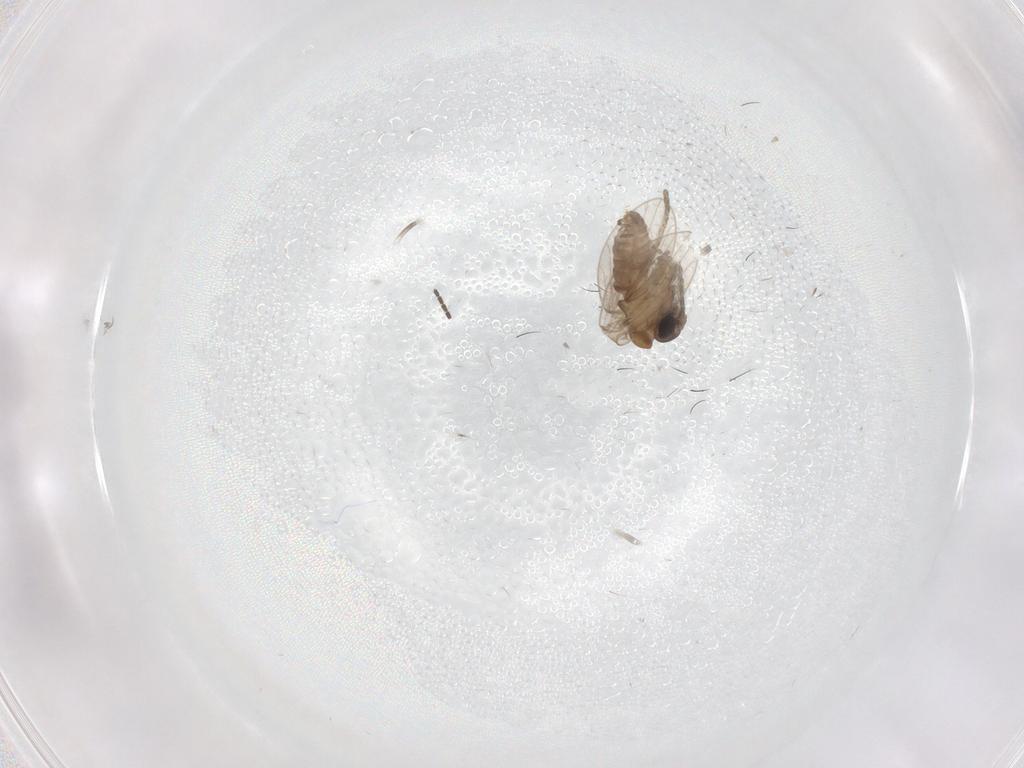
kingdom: Animalia
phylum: Arthropoda
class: Insecta
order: Diptera
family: Sciaridae
